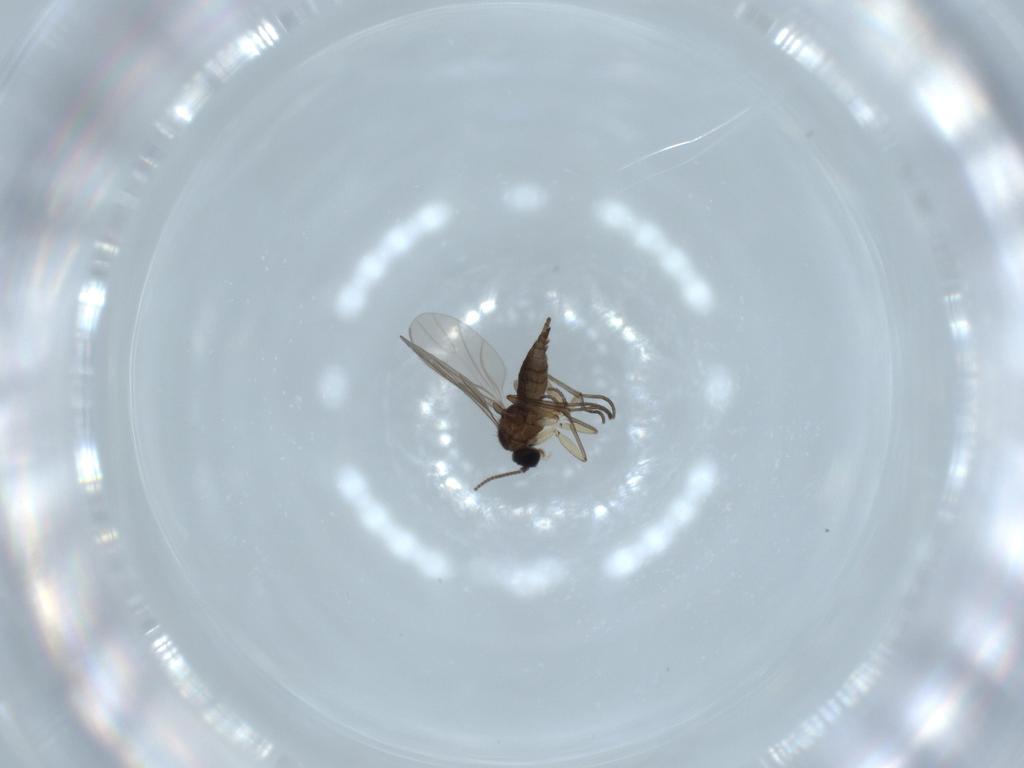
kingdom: Animalia
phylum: Arthropoda
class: Insecta
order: Diptera
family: Sciaridae
